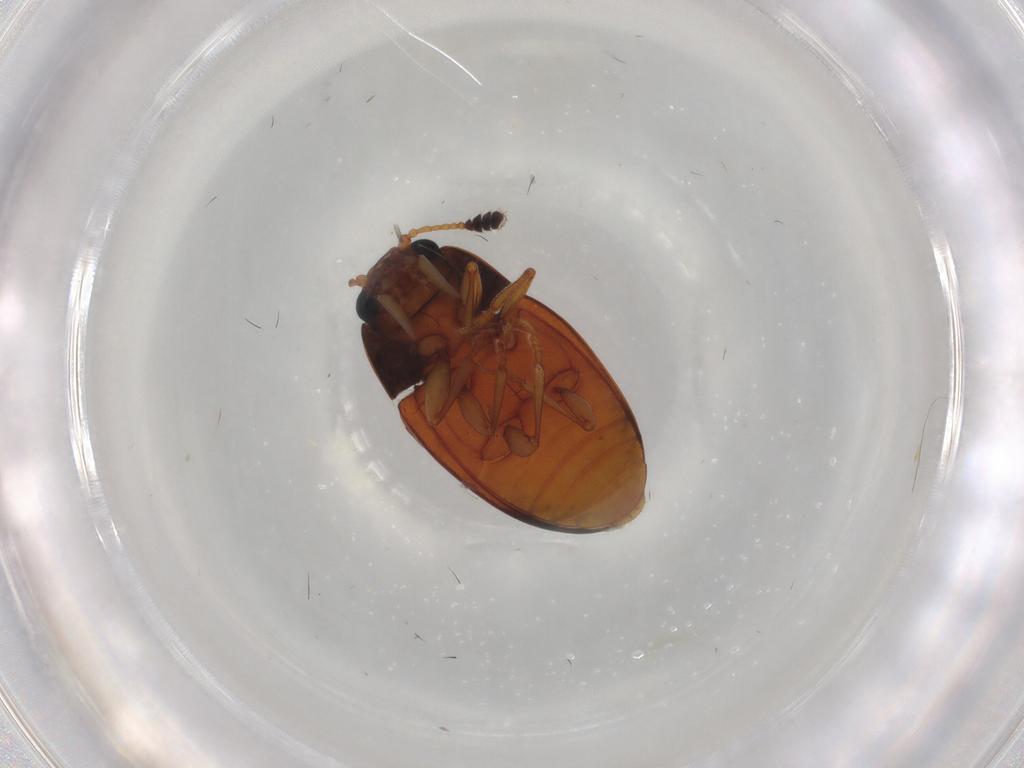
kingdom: Animalia
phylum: Arthropoda
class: Insecta
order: Coleoptera
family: Erotylidae
